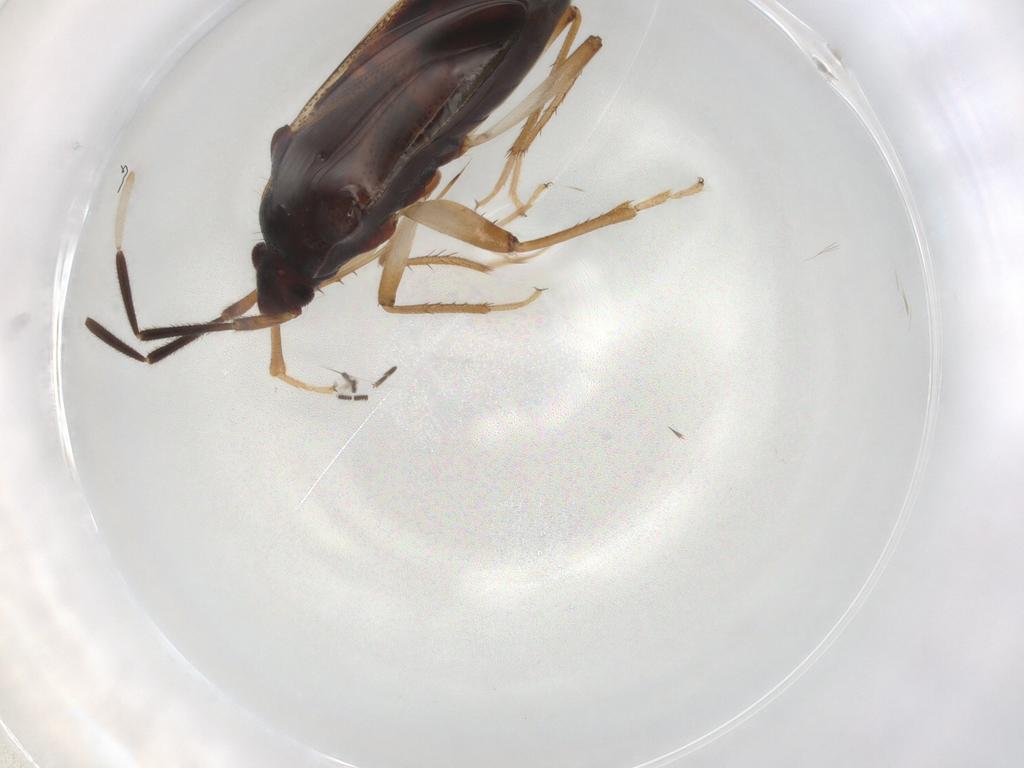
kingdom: Animalia
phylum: Arthropoda
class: Insecta
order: Hemiptera
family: Rhyparochromidae
